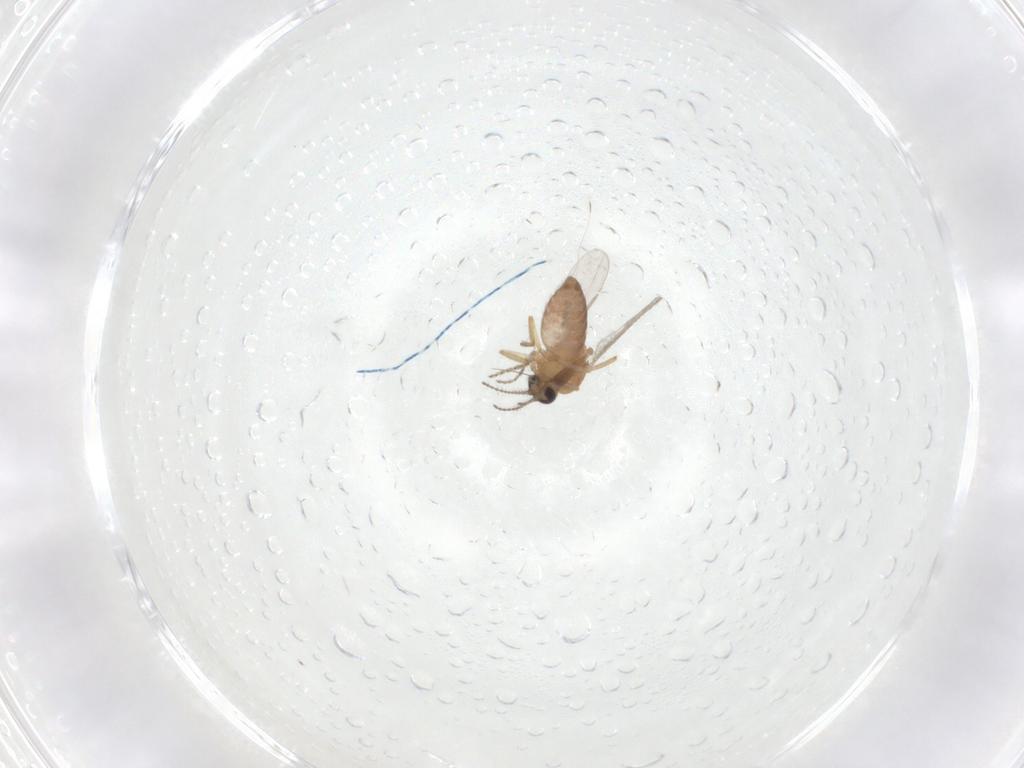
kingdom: Animalia
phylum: Arthropoda
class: Insecta
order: Diptera
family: Ceratopogonidae
